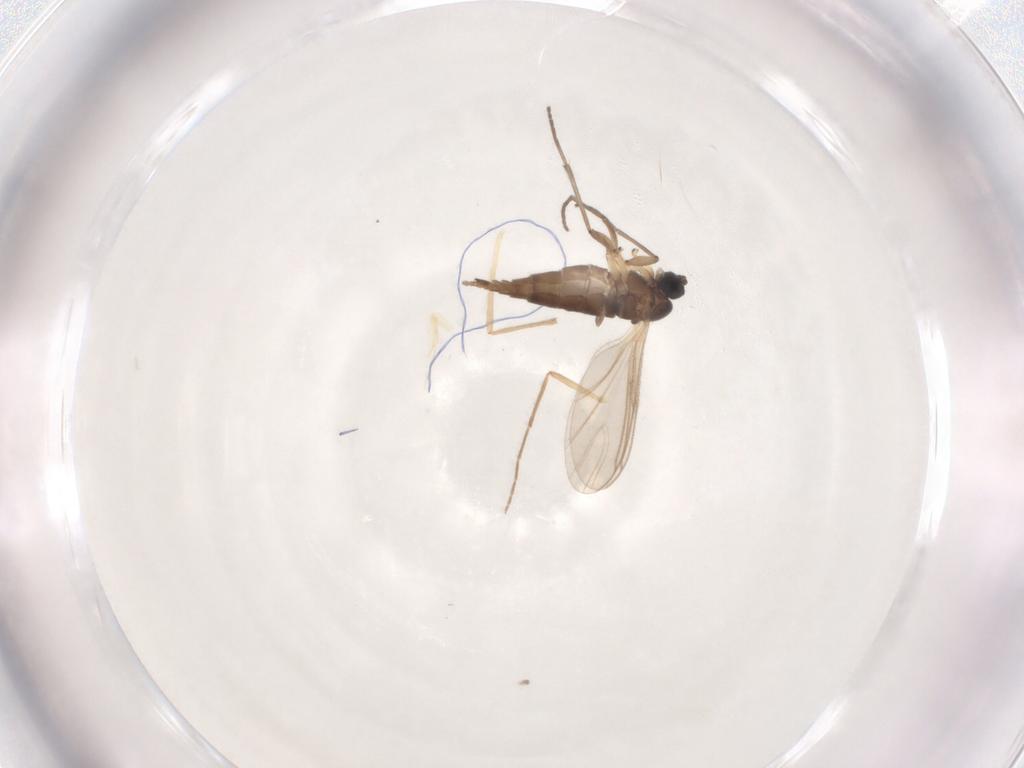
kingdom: Animalia
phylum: Arthropoda
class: Insecta
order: Diptera
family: Sciaridae
